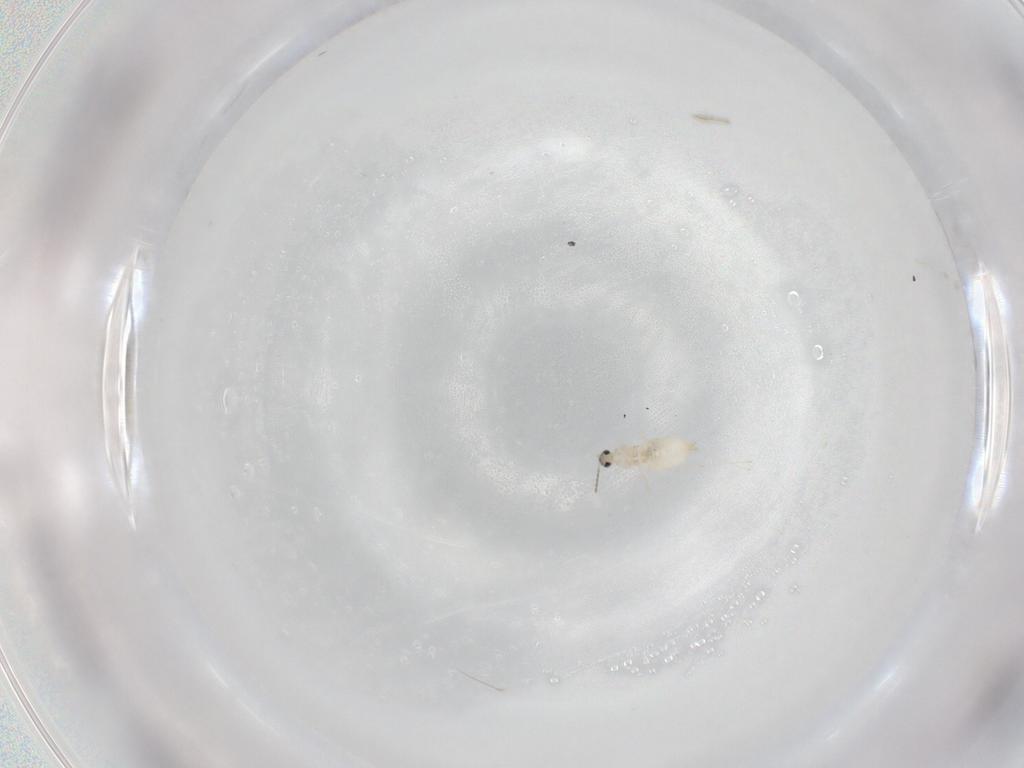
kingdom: Animalia
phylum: Arthropoda
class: Insecta
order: Diptera
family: Cecidomyiidae
